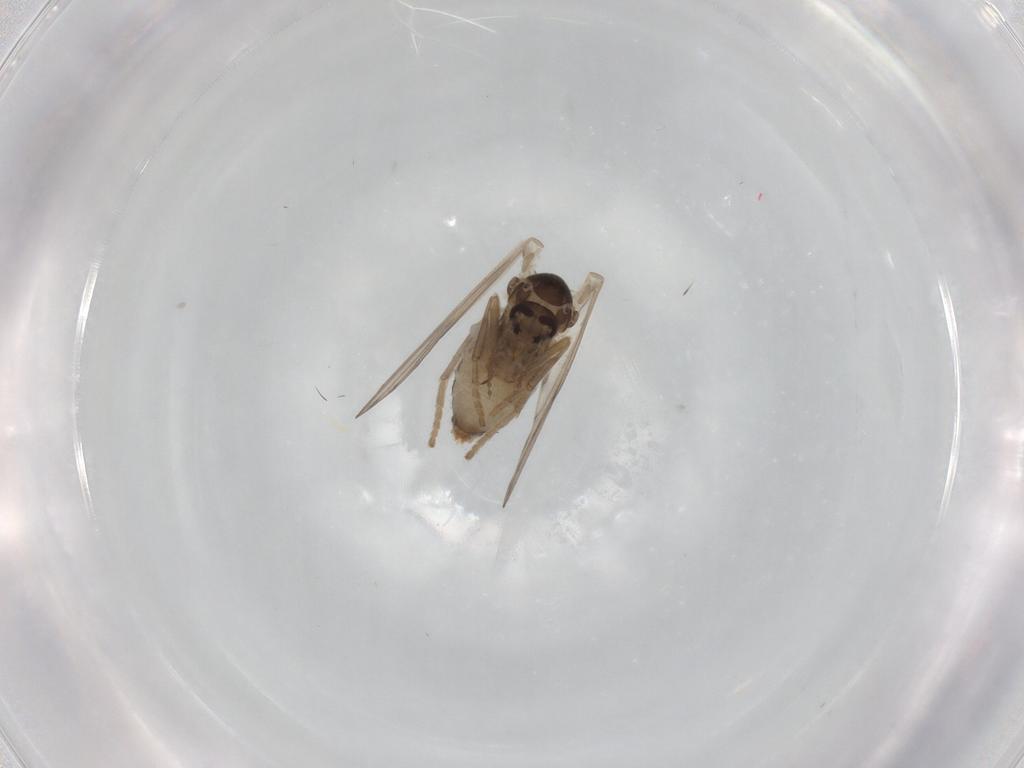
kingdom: Animalia
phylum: Arthropoda
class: Insecta
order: Diptera
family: Psychodidae
